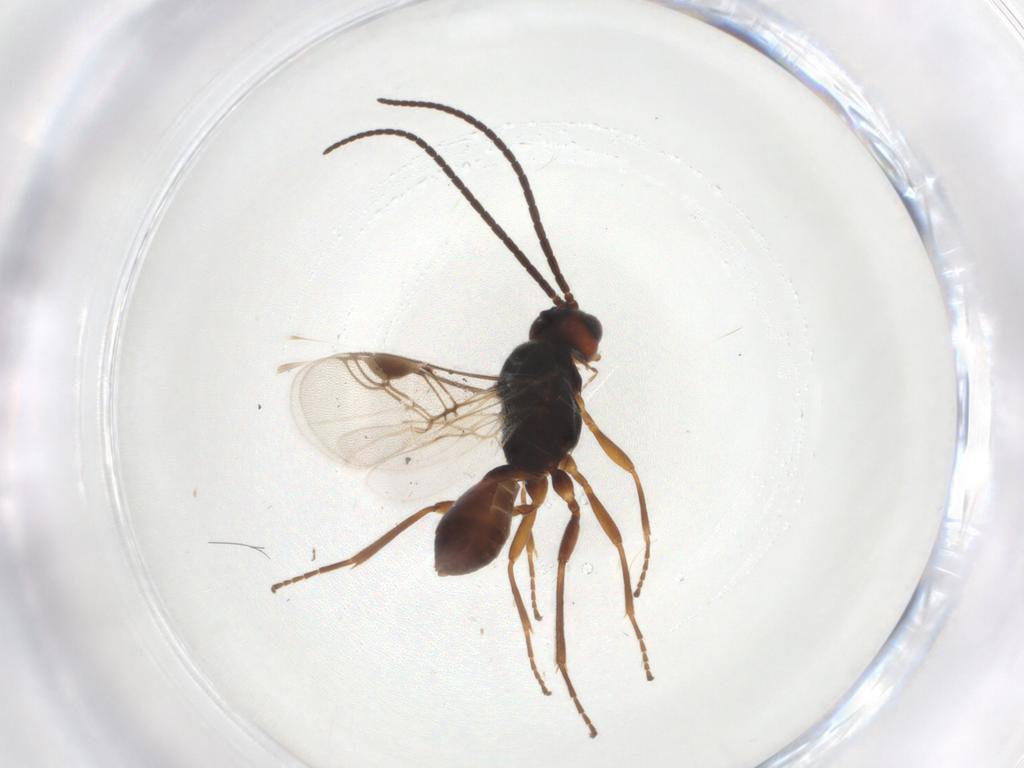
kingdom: Animalia
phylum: Arthropoda
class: Insecta
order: Hymenoptera
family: Braconidae
